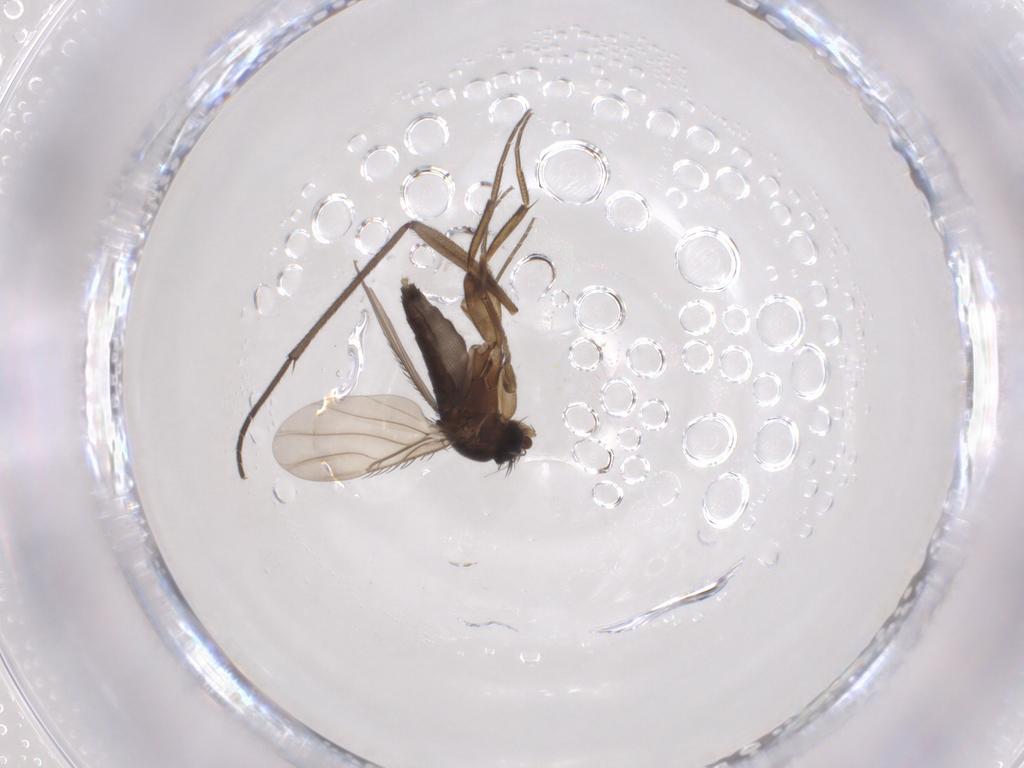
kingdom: Animalia
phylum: Arthropoda
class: Insecta
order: Diptera
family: Phoridae
